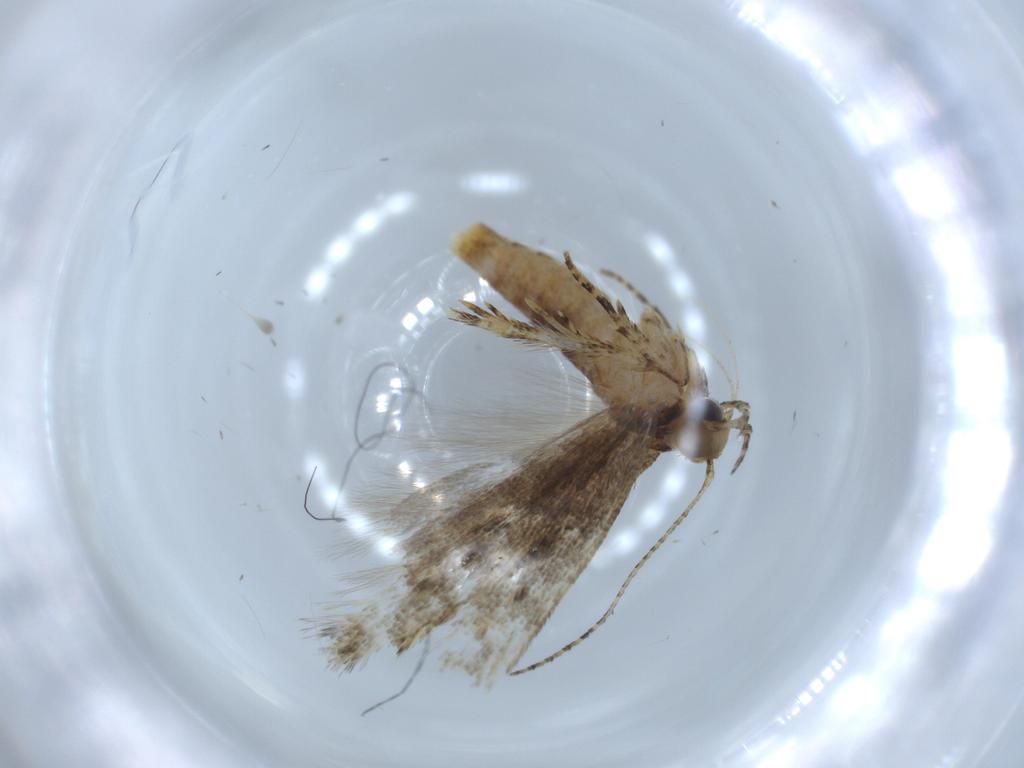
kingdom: Animalia
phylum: Arthropoda
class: Insecta
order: Lepidoptera
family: Gelechiidae
